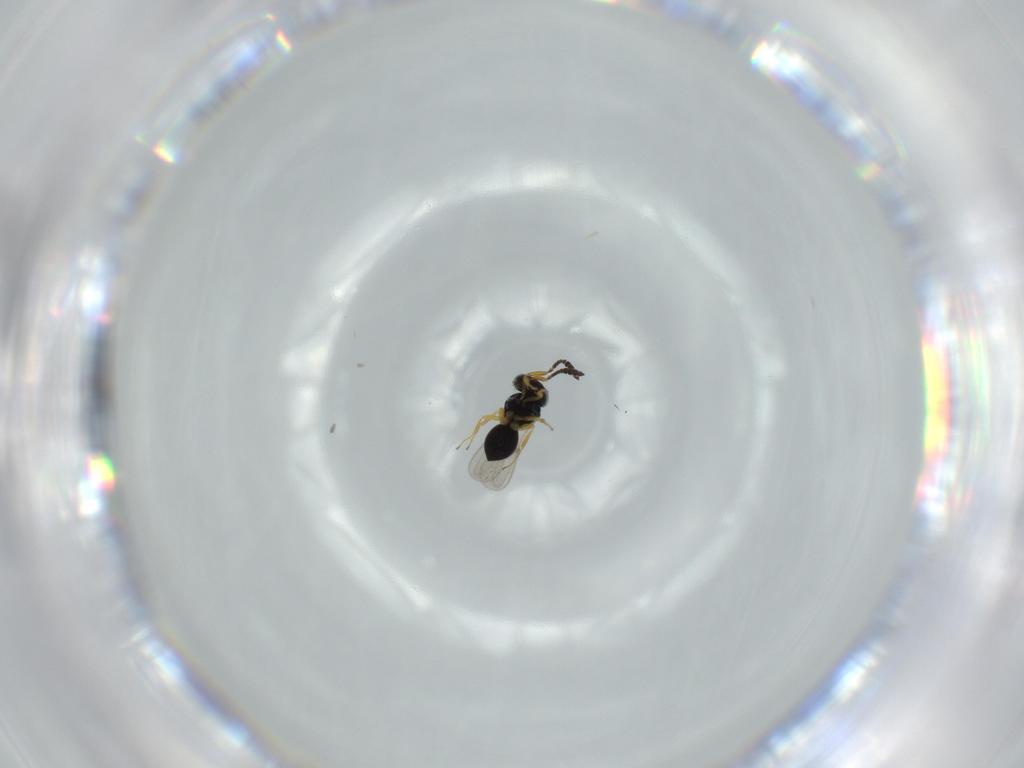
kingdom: Animalia
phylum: Arthropoda
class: Insecta
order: Hymenoptera
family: Scelionidae
